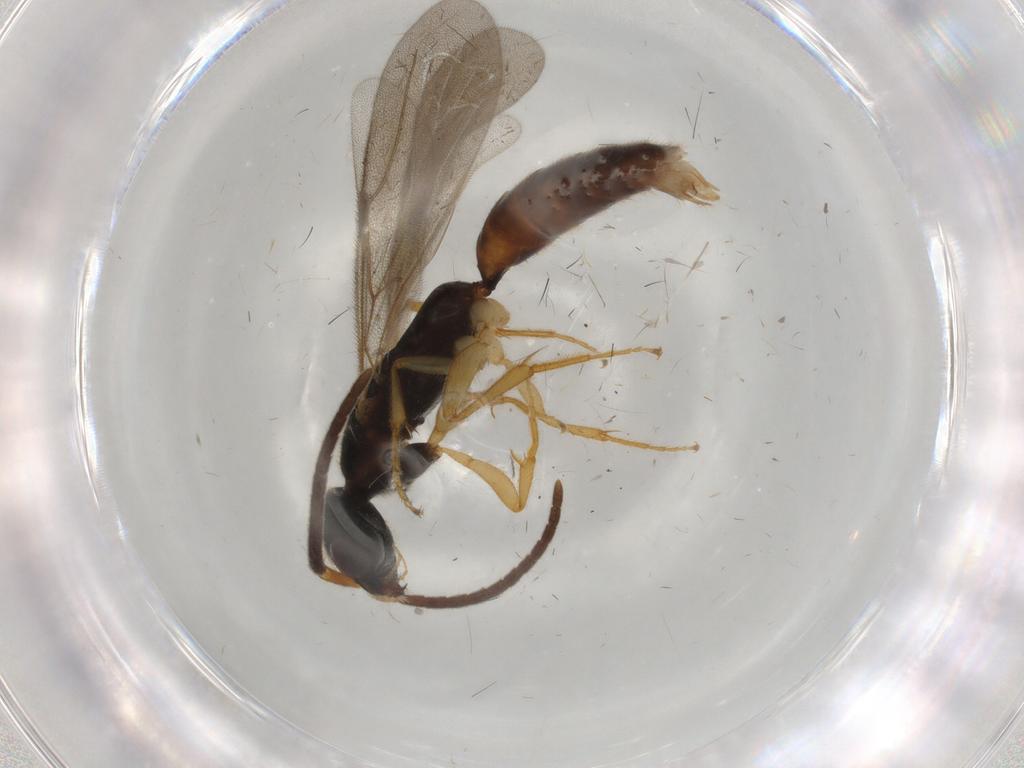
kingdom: Animalia
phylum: Arthropoda
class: Insecta
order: Hymenoptera
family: Bethylidae
